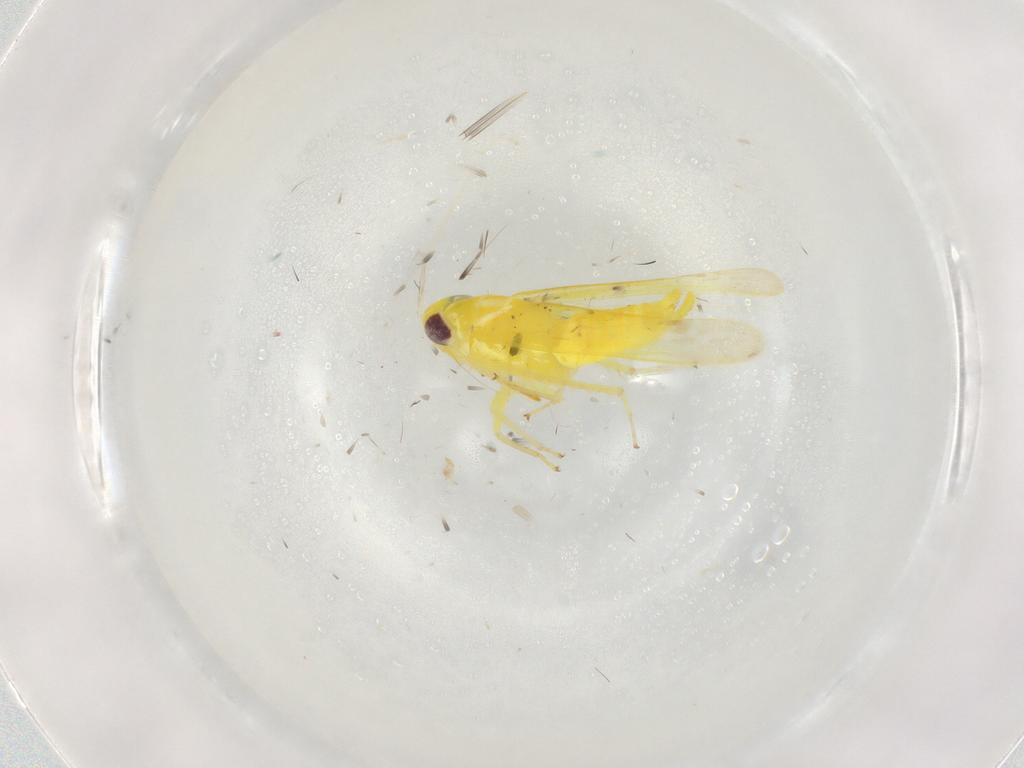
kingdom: Animalia
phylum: Arthropoda
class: Insecta
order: Hemiptera
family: Cicadellidae
